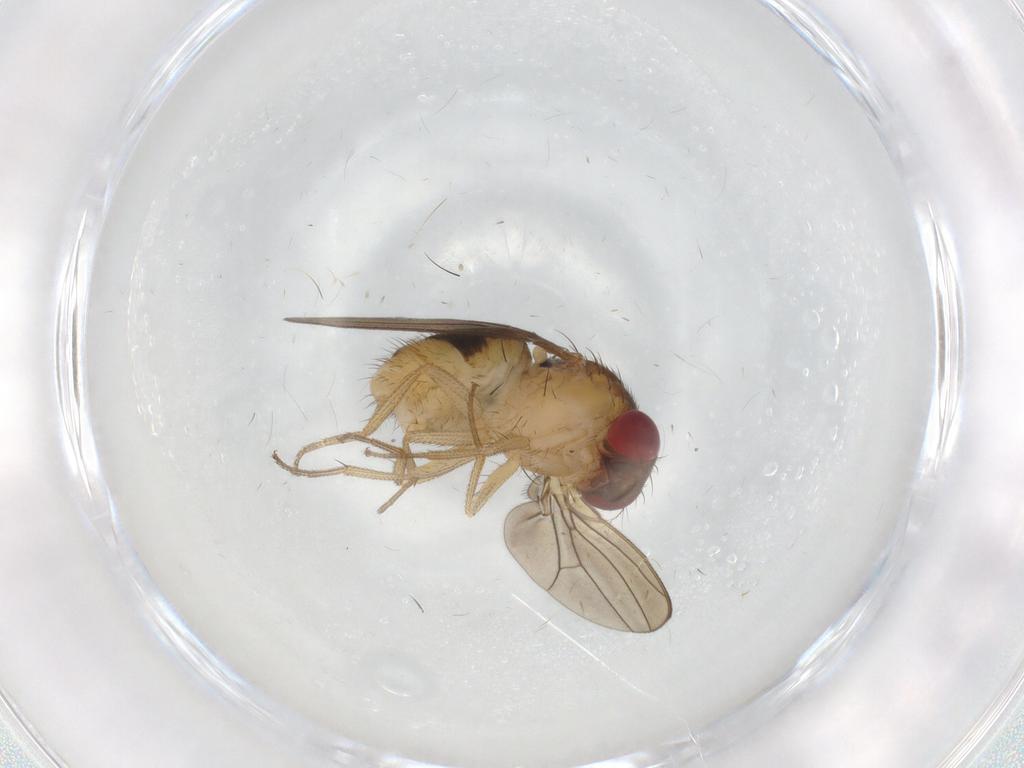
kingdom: Animalia
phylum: Arthropoda
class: Insecta
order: Diptera
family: Drosophilidae
